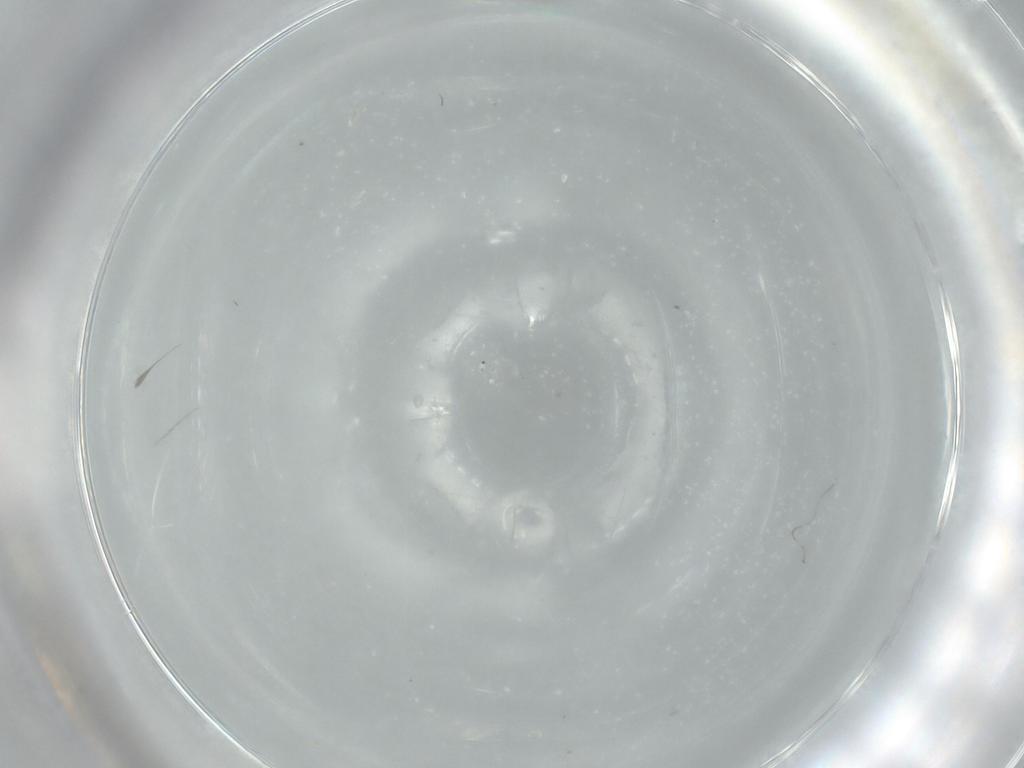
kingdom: Animalia
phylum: Arthropoda
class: Insecta
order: Diptera
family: Cecidomyiidae
